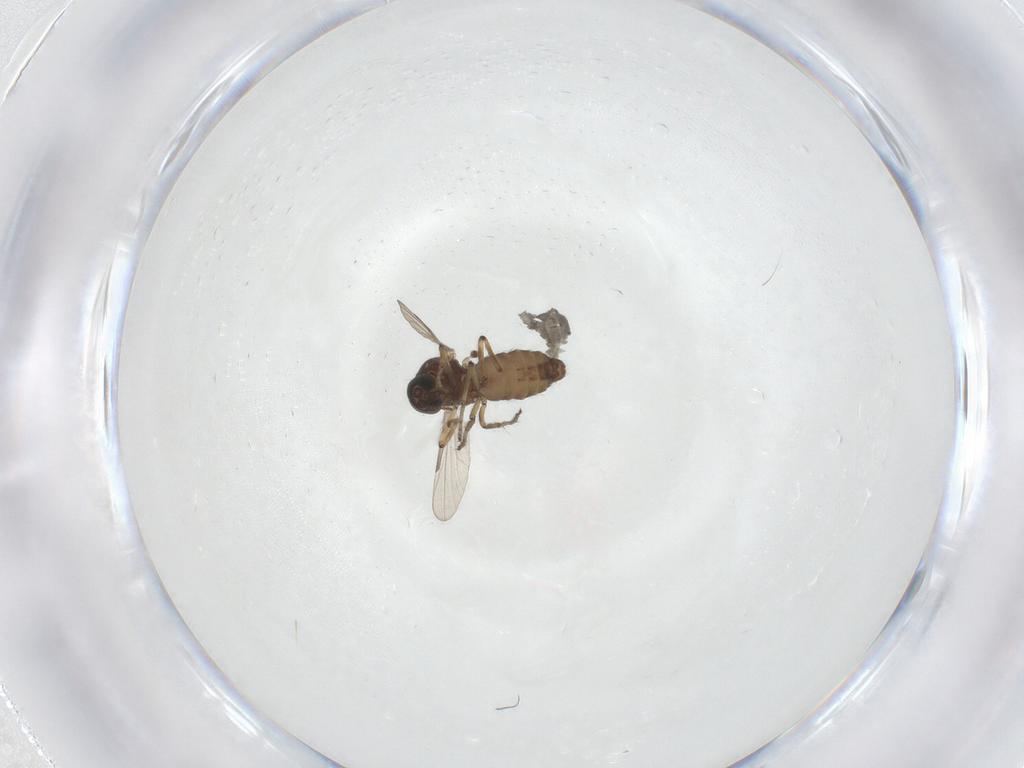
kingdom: Animalia
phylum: Arthropoda
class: Insecta
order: Diptera
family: Ceratopogonidae
